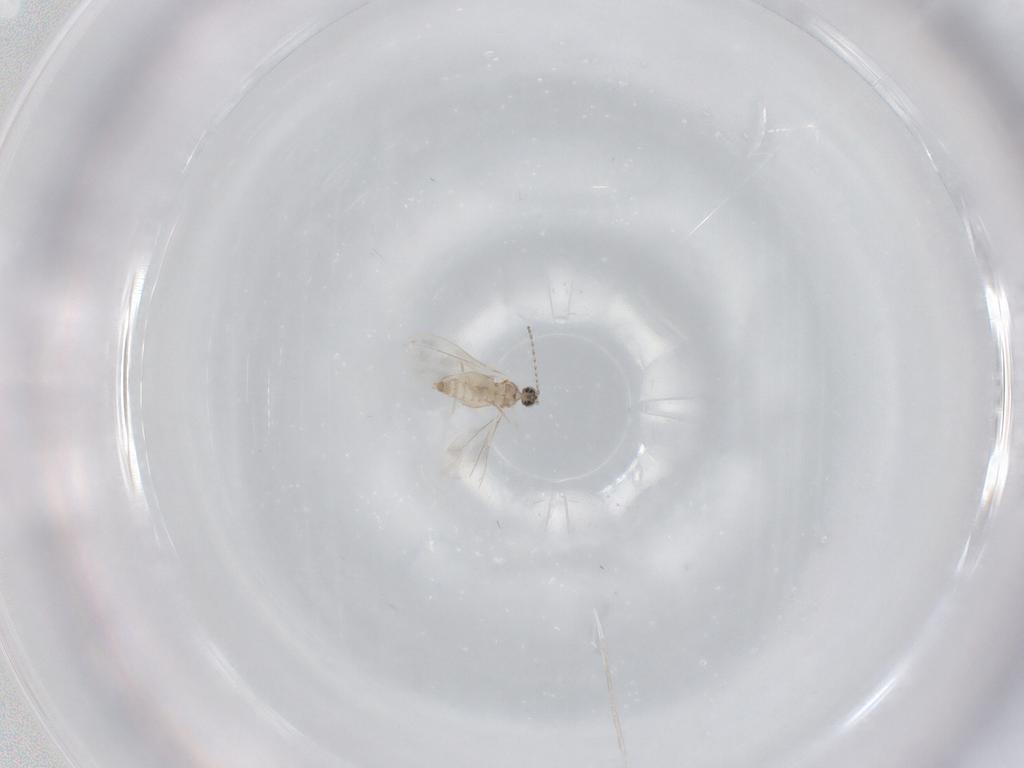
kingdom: Animalia
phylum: Arthropoda
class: Insecta
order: Diptera
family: Cecidomyiidae
